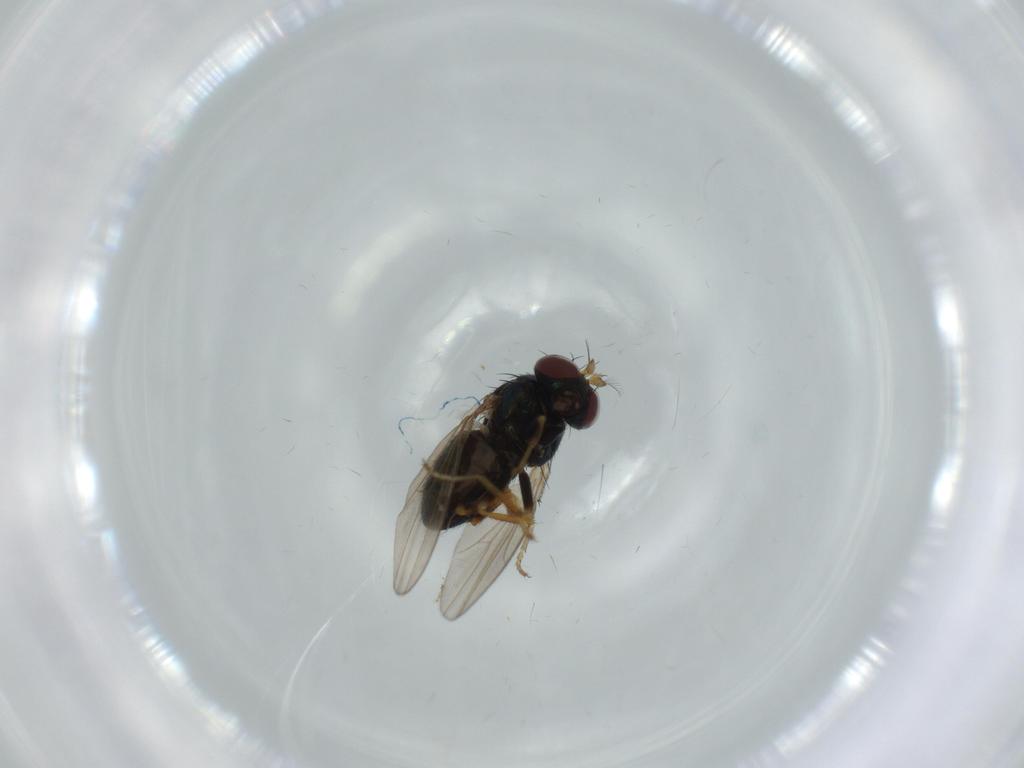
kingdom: Animalia
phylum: Arthropoda
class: Insecta
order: Diptera
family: Ephydridae
